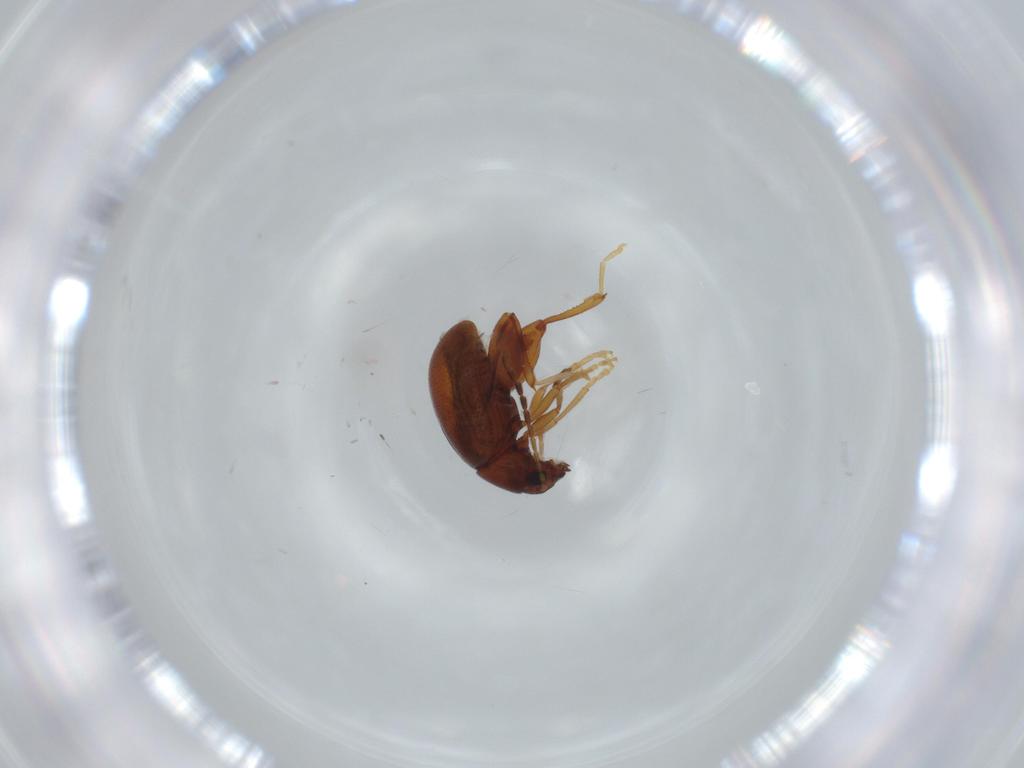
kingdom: Animalia
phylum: Arthropoda
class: Insecta
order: Coleoptera
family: Chrysomelidae
